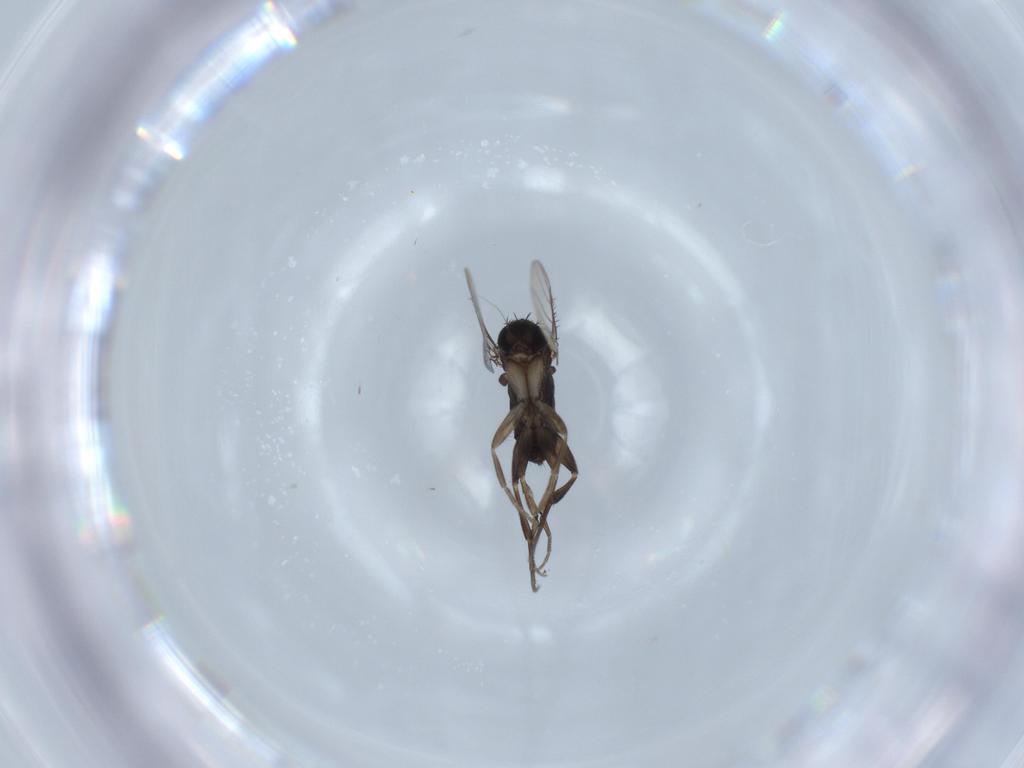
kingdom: Animalia
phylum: Arthropoda
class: Insecta
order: Diptera
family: Phoridae
